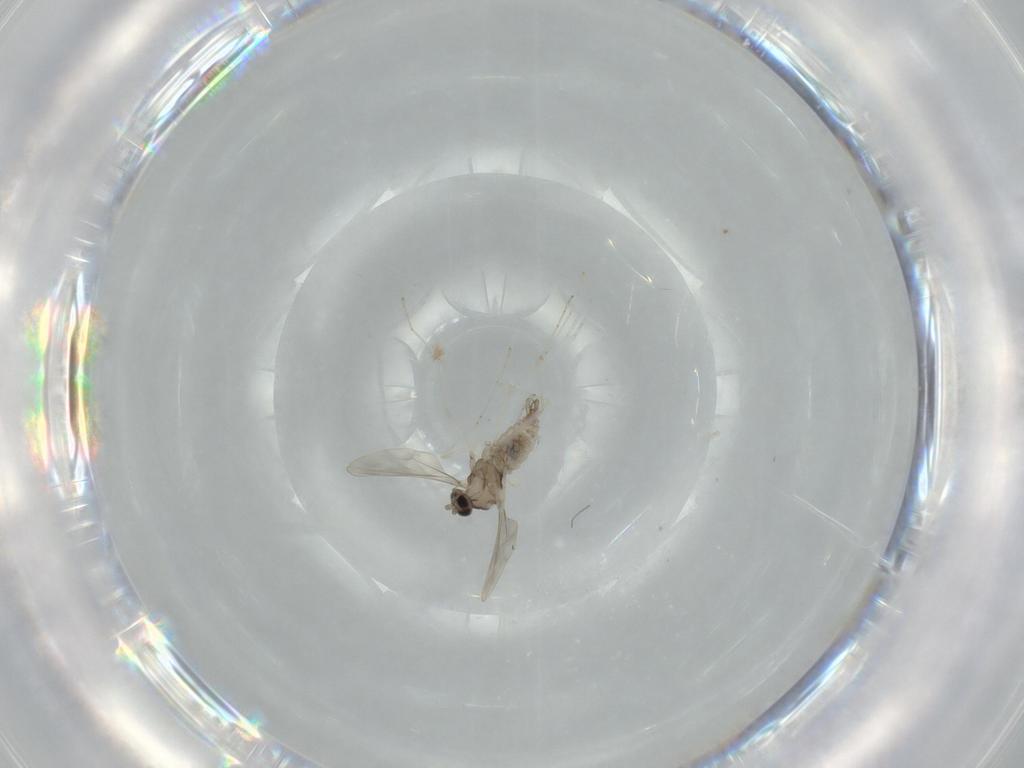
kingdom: Animalia
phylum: Arthropoda
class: Insecta
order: Diptera
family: Cecidomyiidae
